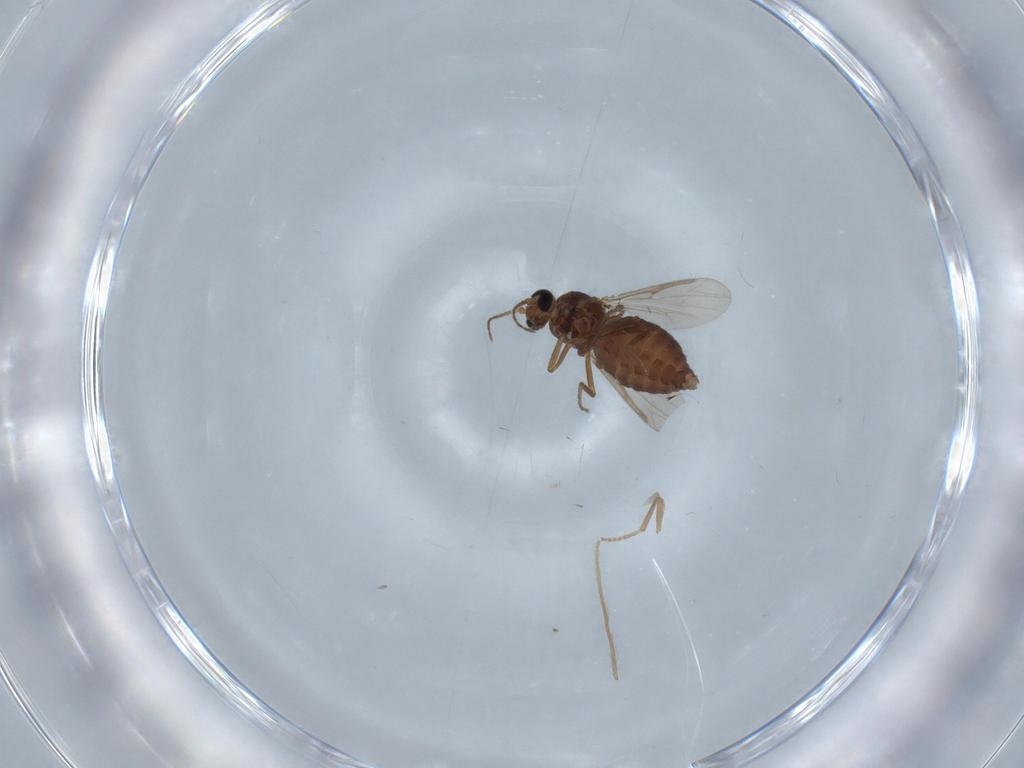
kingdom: Animalia
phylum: Arthropoda
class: Insecta
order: Diptera
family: Ceratopogonidae
